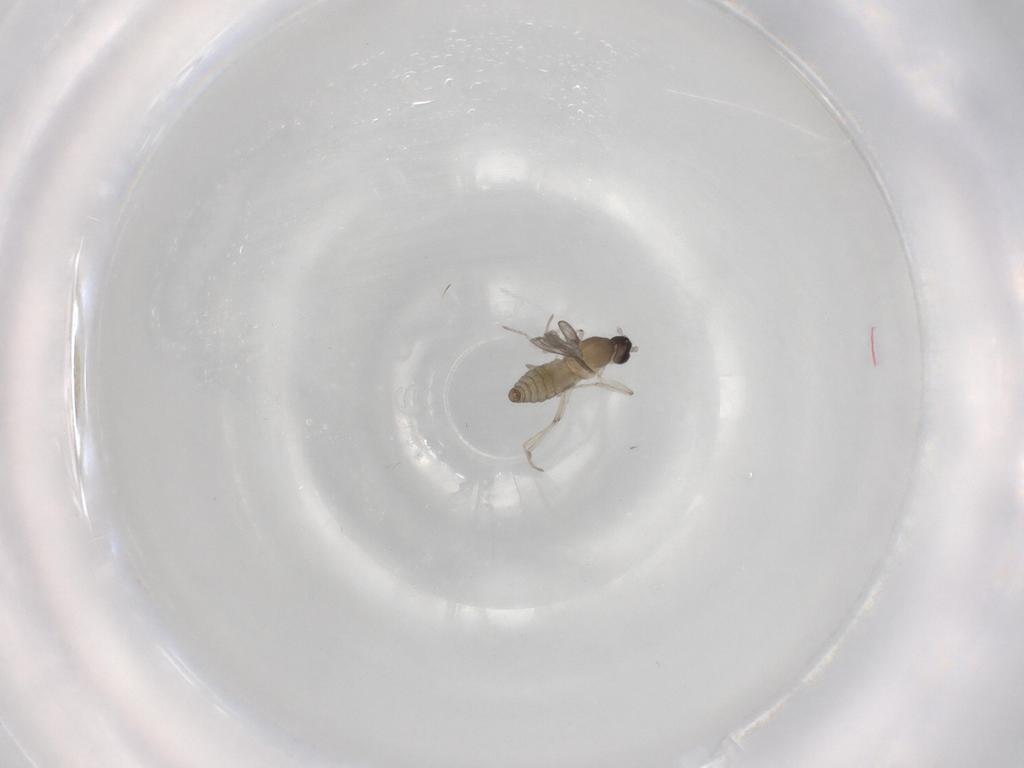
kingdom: Animalia
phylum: Arthropoda
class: Insecta
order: Diptera
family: Cecidomyiidae
